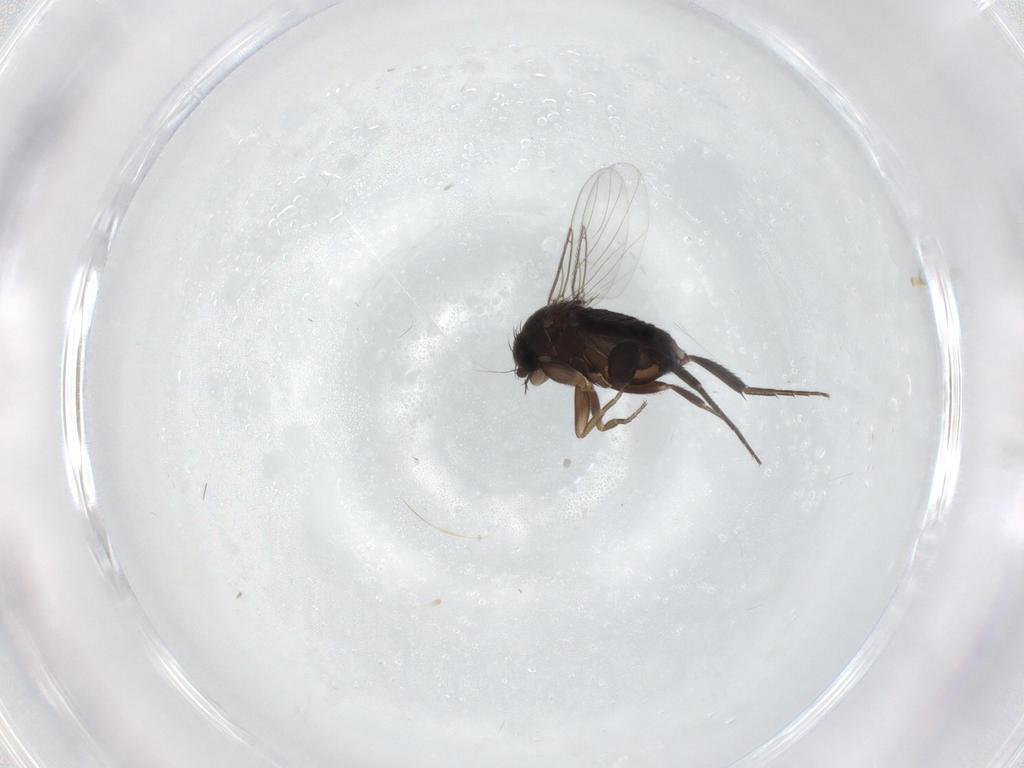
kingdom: Animalia
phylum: Arthropoda
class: Insecta
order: Diptera
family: Phoridae
